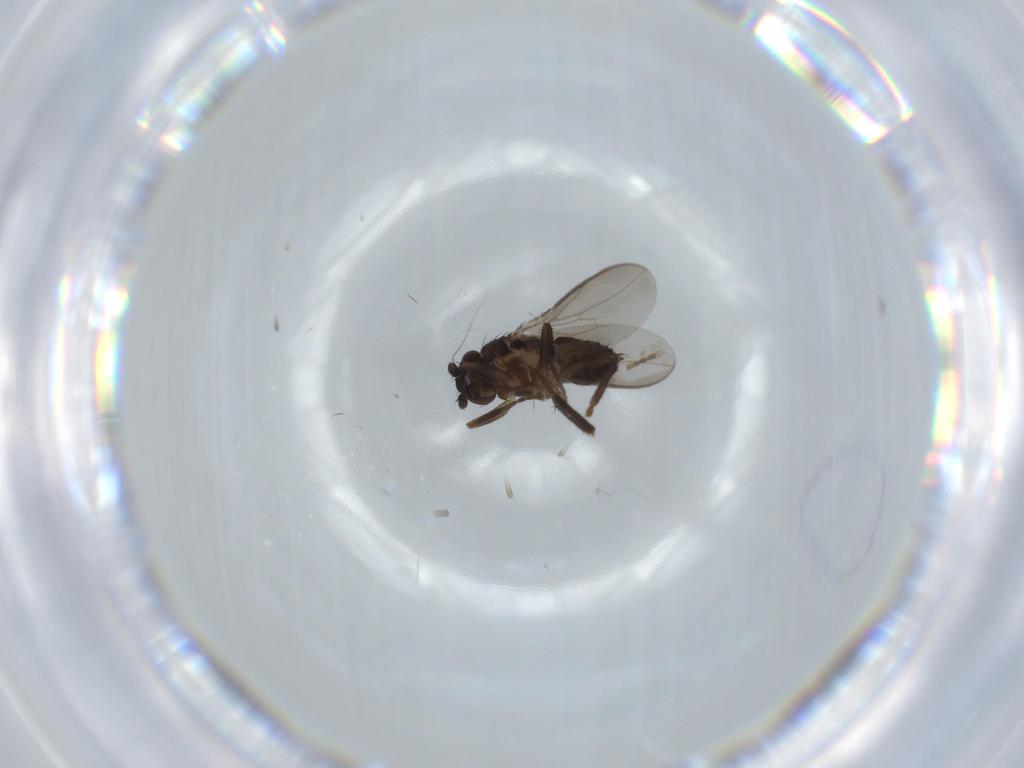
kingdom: Animalia
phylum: Arthropoda
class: Insecta
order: Diptera
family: Sphaeroceridae
